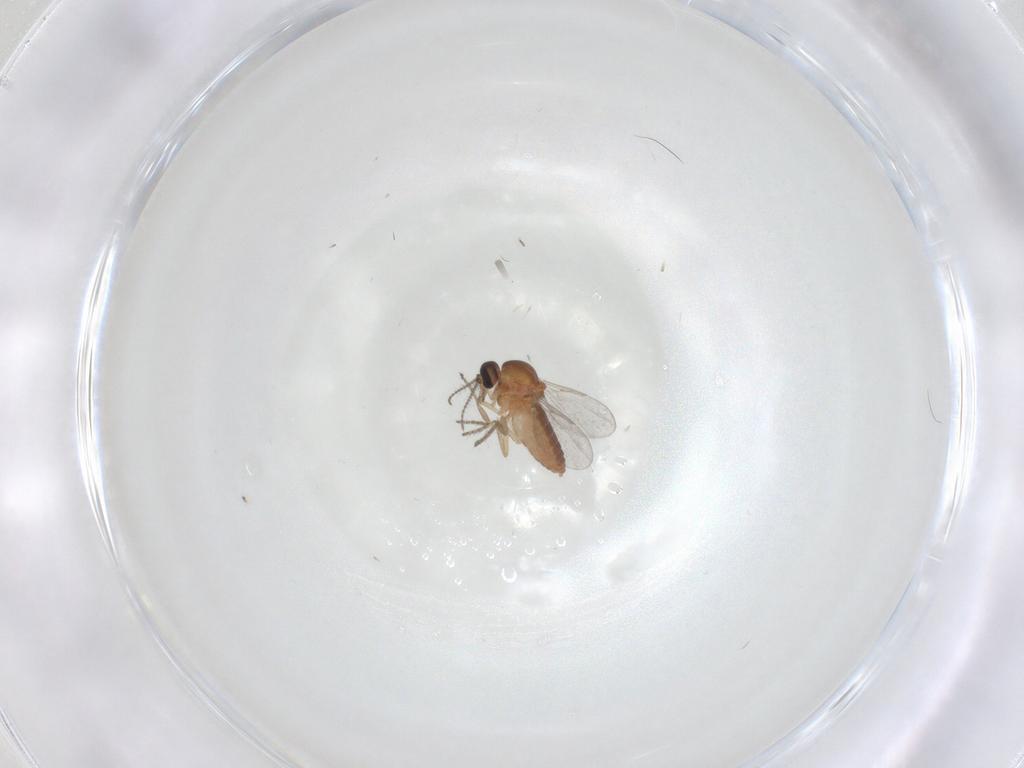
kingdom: Animalia
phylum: Arthropoda
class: Insecta
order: Diptera
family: Ceratopogonidae
